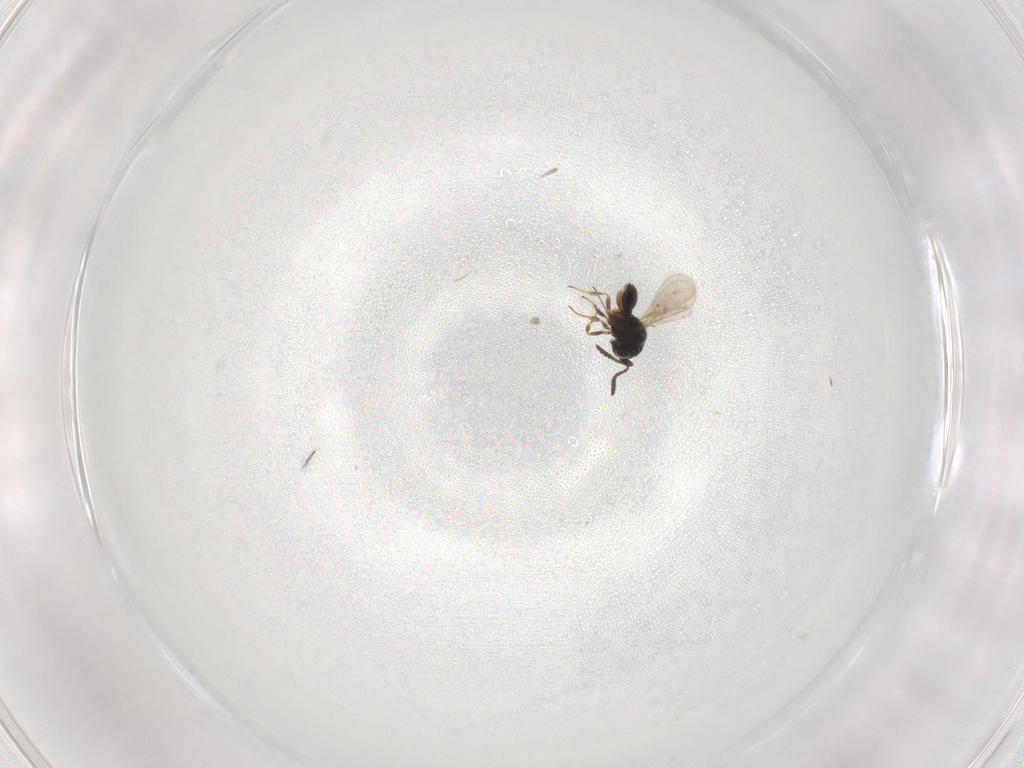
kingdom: Animalia
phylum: Arthropoda
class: Insecta
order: Hymenoptera
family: Scelionidae
